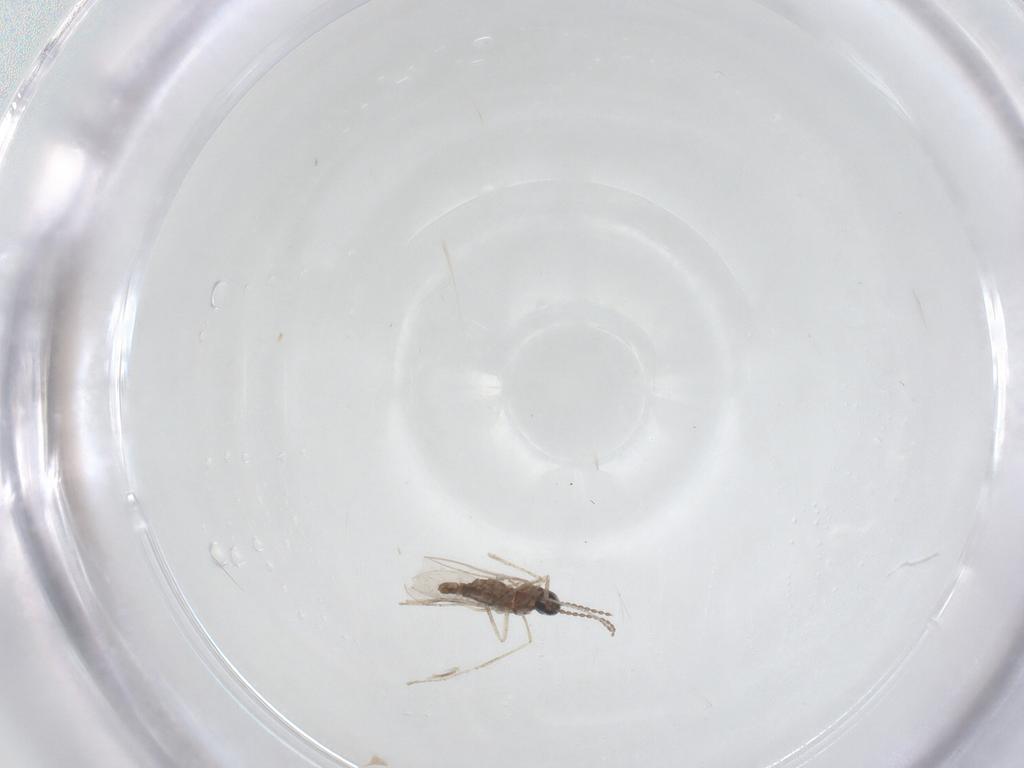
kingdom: Animalia
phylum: Arthropoda
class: Insecta
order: Diptera
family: Cecidomyiidae
